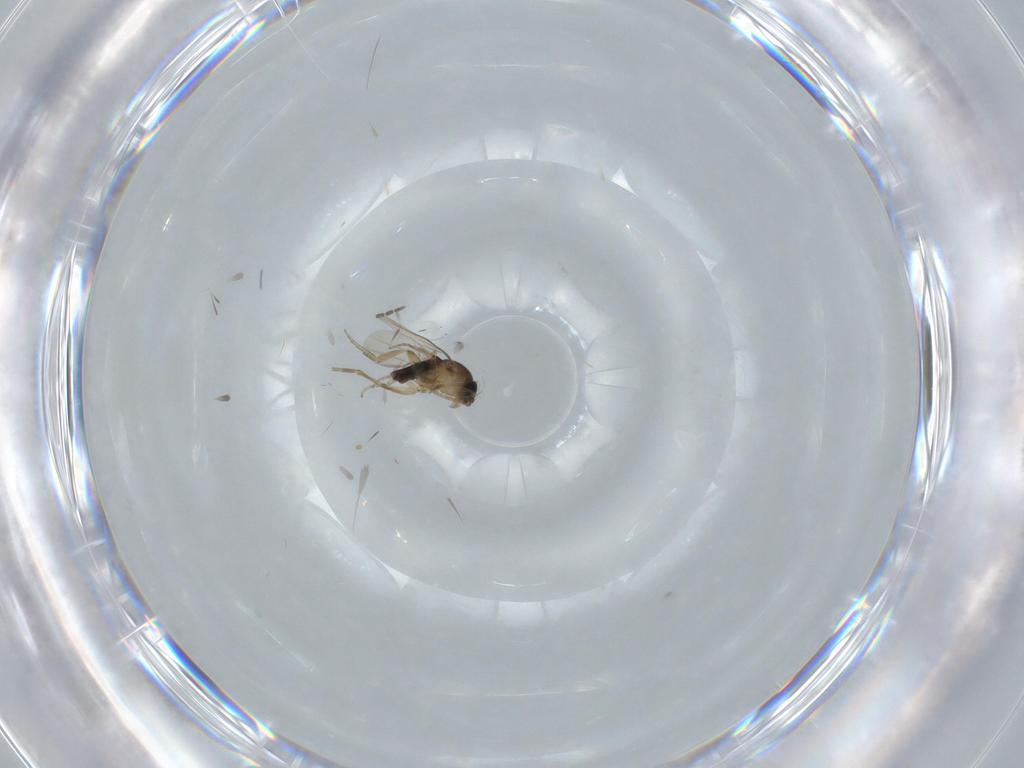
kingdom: Animalia
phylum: Arthropoda
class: Insecta
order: Diptera
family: Phoridae
